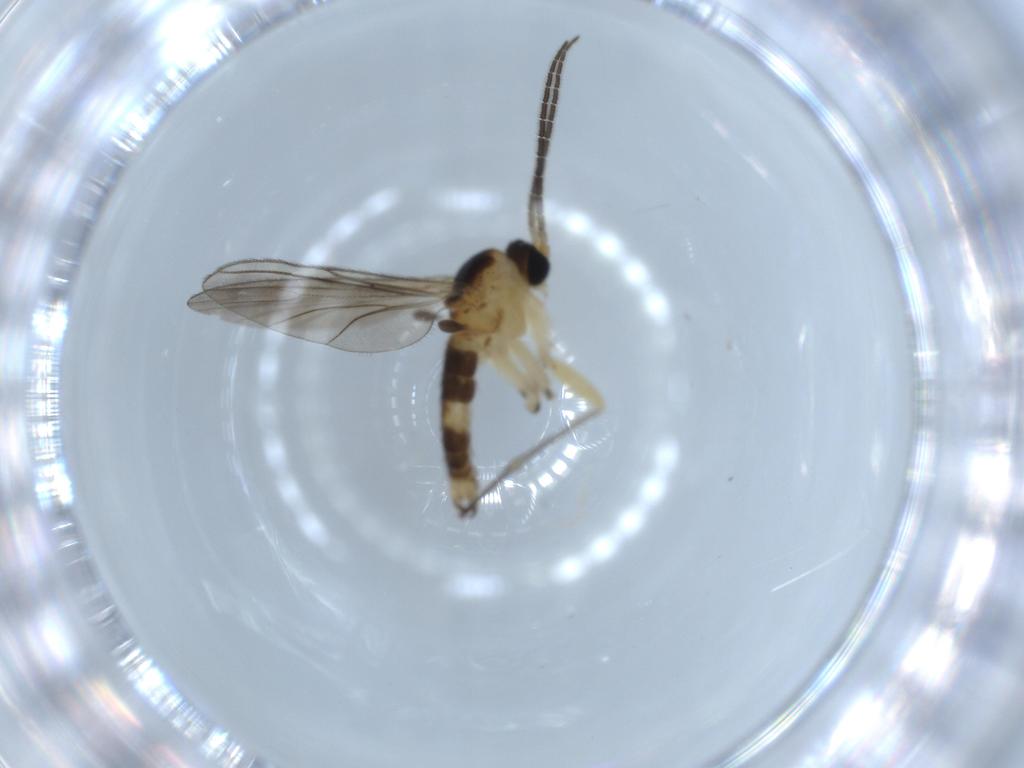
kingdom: Animalia
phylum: Arthropoda
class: Insecta
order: Diptera
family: Sciaridae
